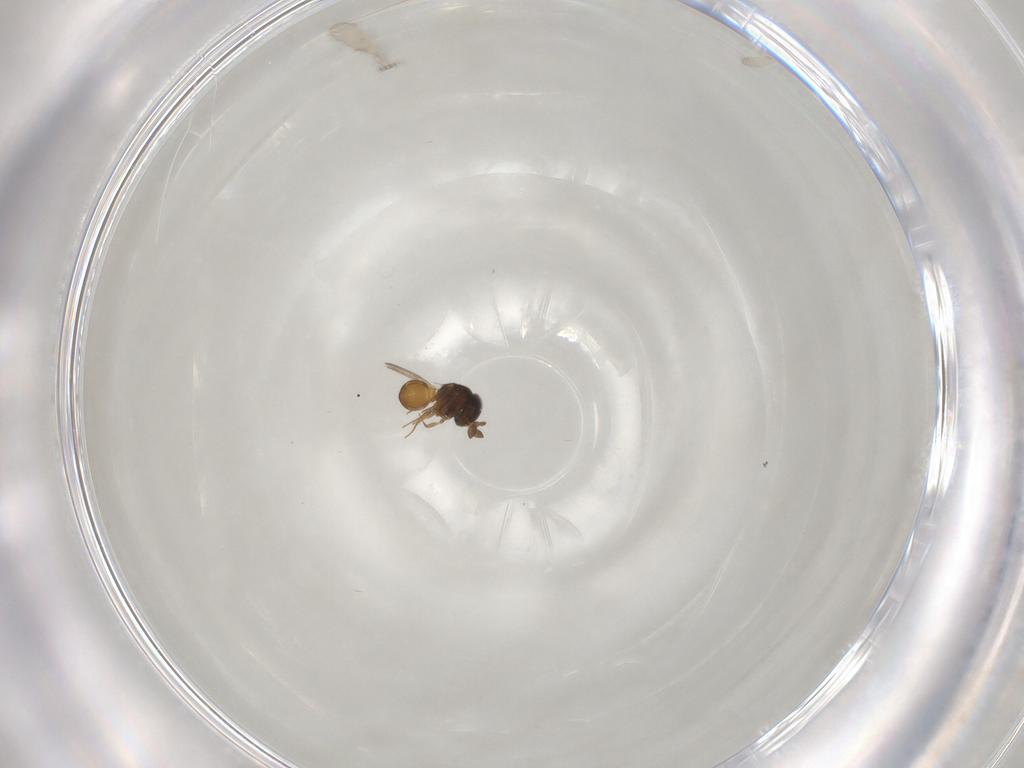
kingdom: Animalia
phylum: Arthropoda
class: Insecta
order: Hymenoptera
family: Scelionidae
